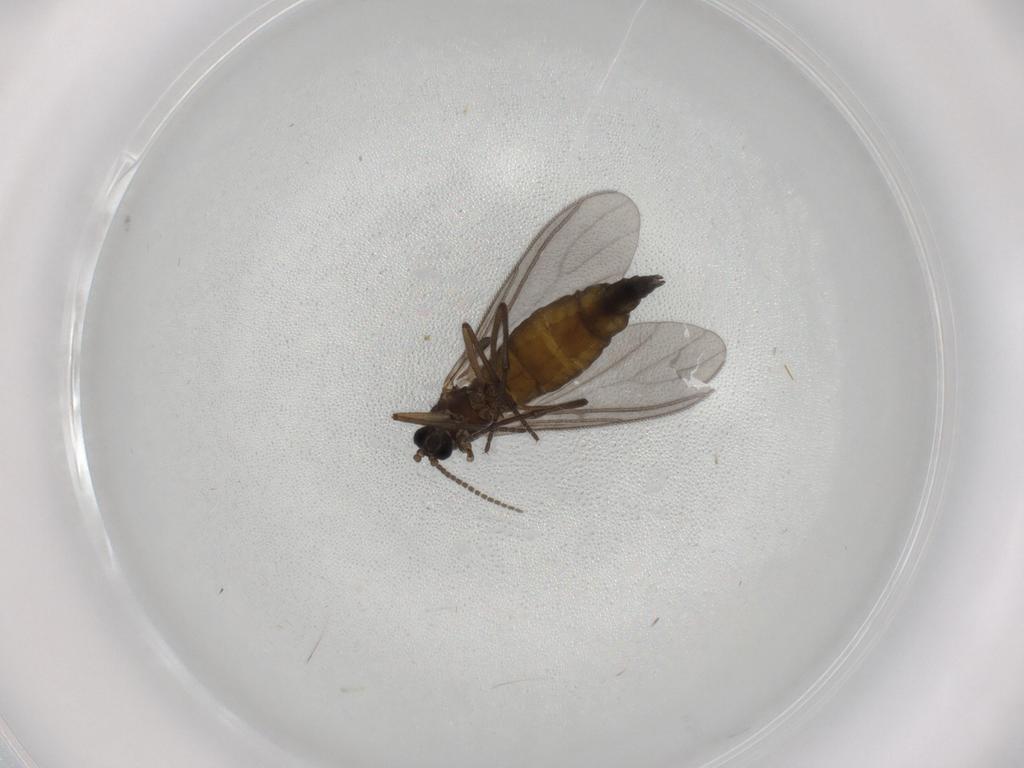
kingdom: Animalia
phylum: Arthropoda
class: Insecta
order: Diptera
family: Sciaridae
